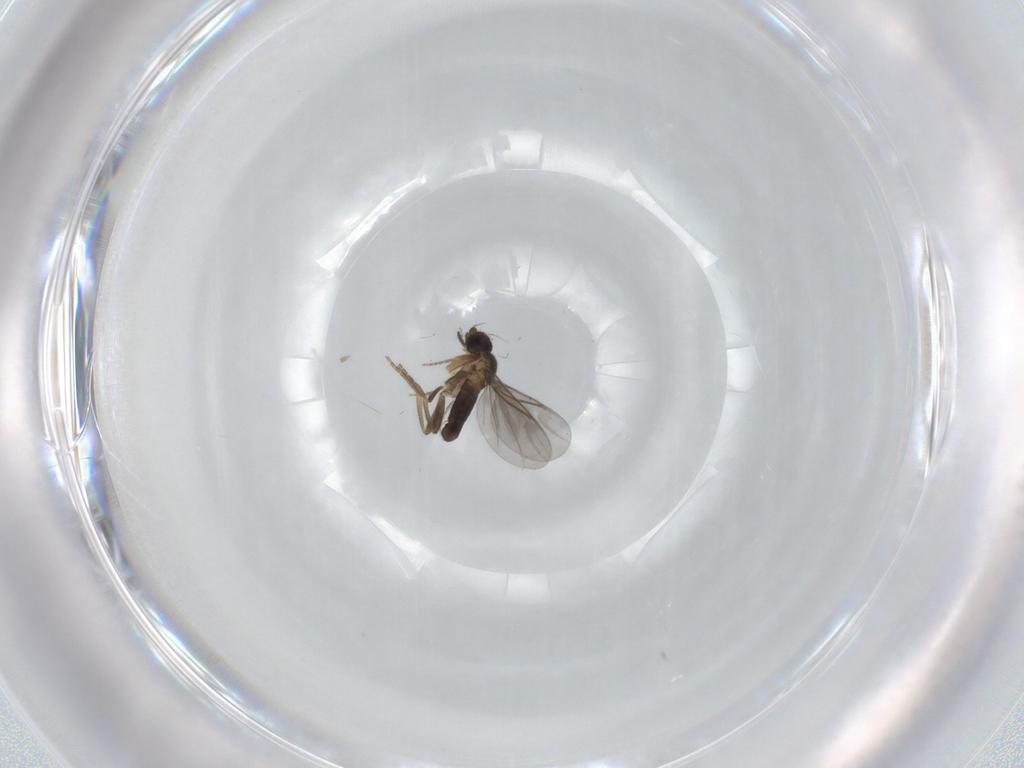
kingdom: Animalia
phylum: Arthropoda
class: Insecta
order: Diptera
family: Phoridae
